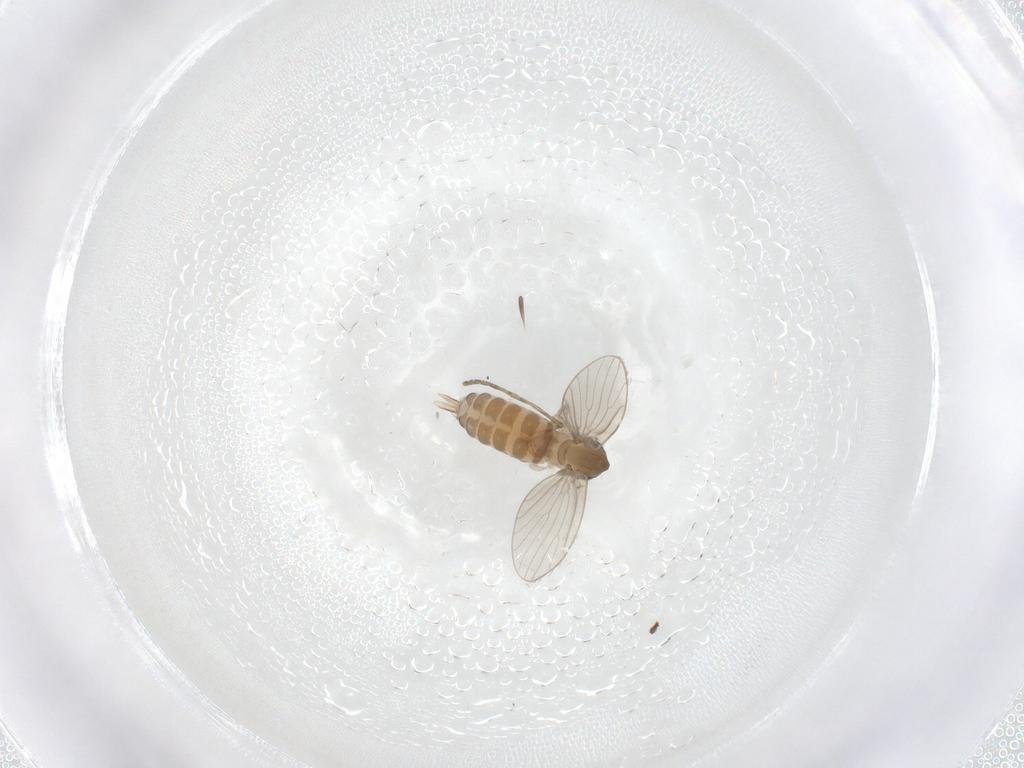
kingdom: Animalia
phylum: Arthropoda
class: Insecta
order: Diptera
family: Psychodidae
